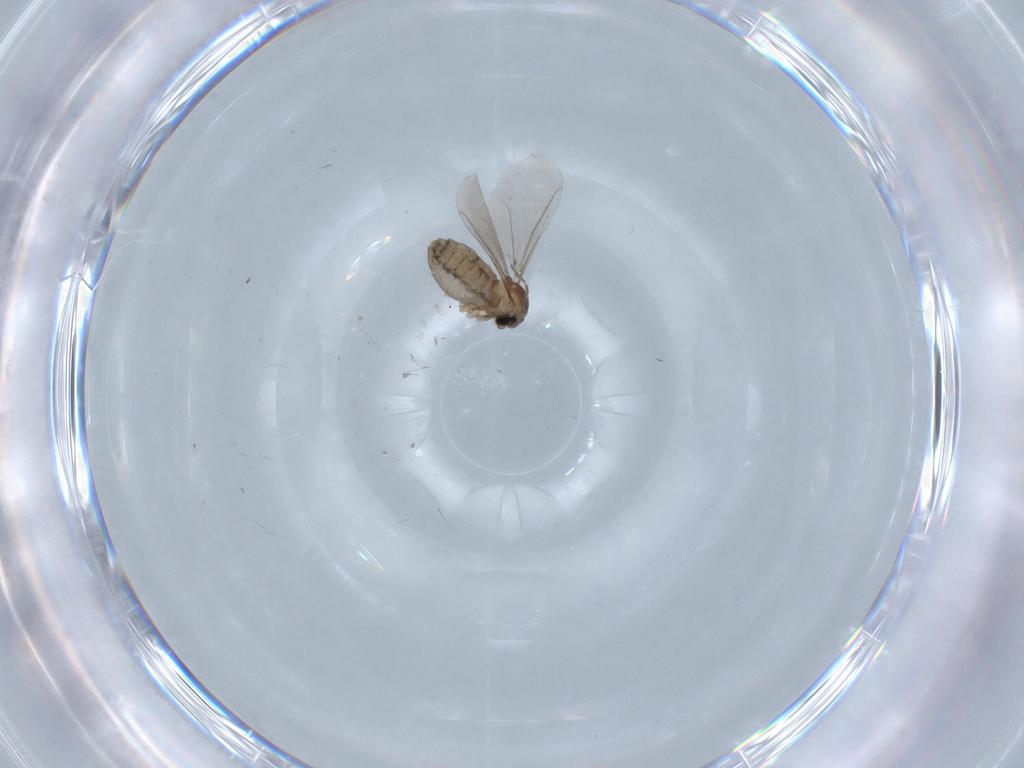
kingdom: Animalia
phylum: Arthropoda
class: Insecta
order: Diptera
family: Cecidomyiidae
